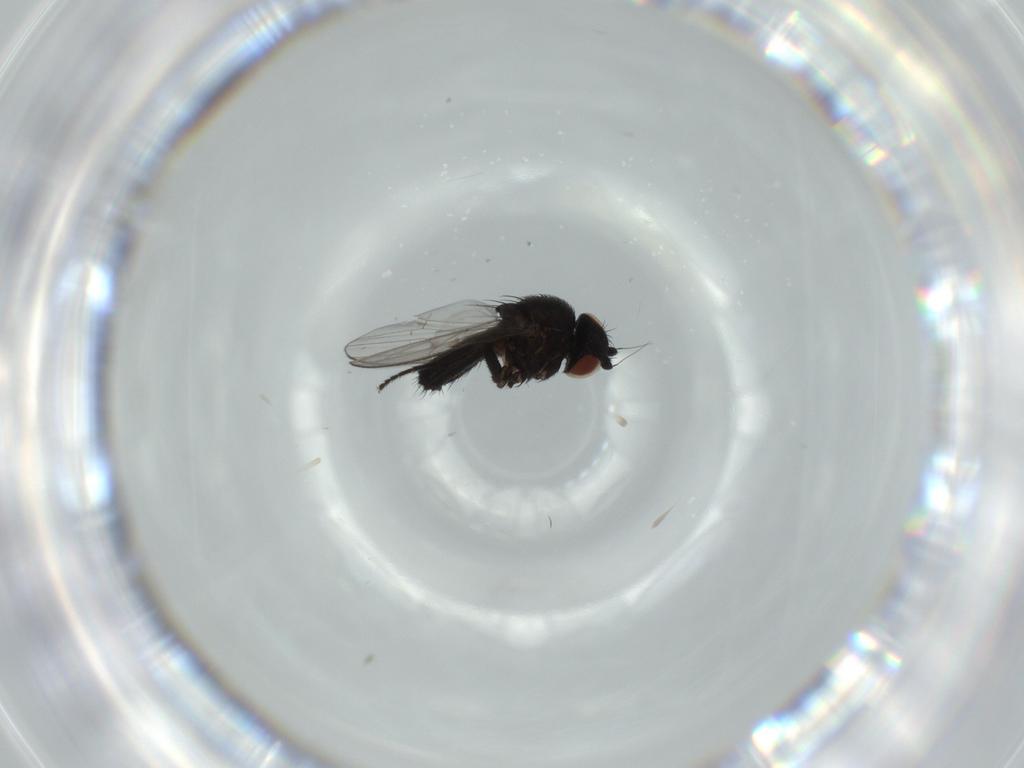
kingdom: Animalia
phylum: Arthropoda
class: Insecta
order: Diptera
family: Milichiidae
